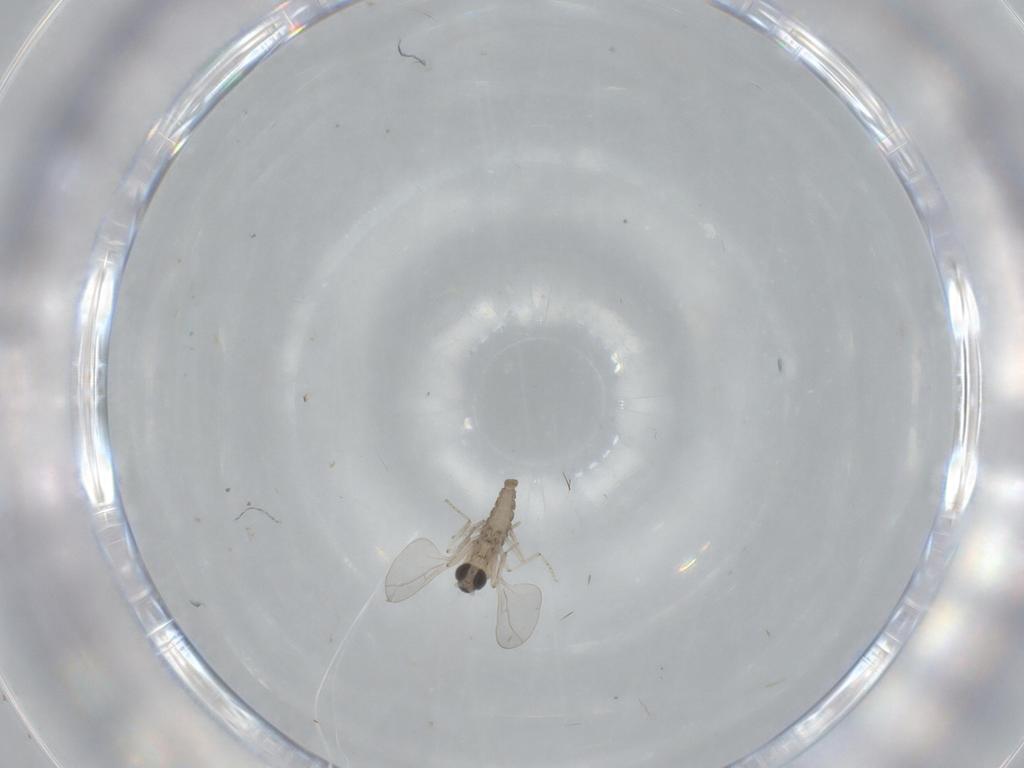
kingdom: Animalia
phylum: Arthropoda
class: Insecta
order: Diptera
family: Cecidomyiidae
